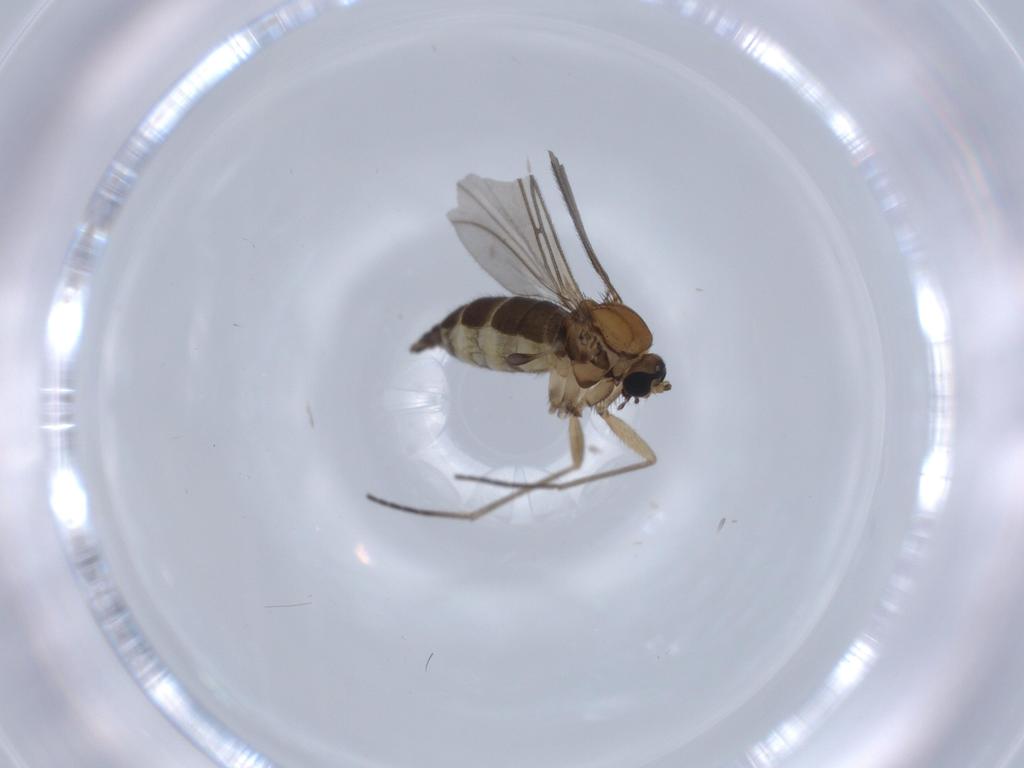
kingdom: Animalia
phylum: Arthropoda
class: Insecta
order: Diptera
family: Sciaridae
